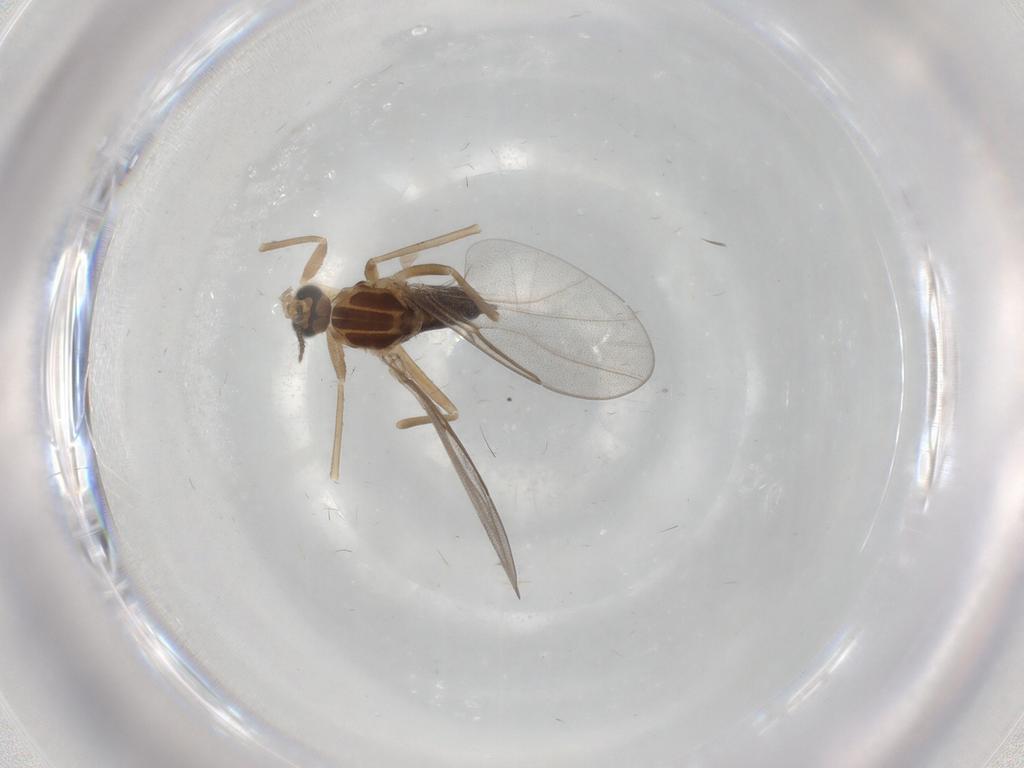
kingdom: Animalia
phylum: Arthropoda
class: Insecta
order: Diptera
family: Cecidomyiidae
